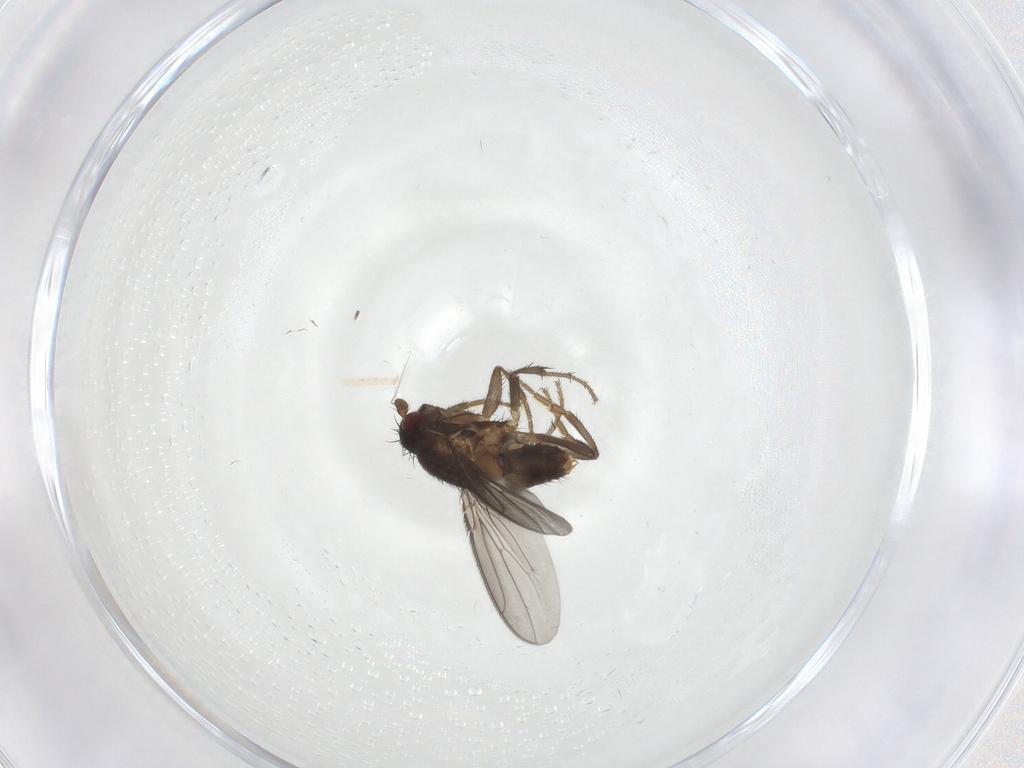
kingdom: Animalia
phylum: Arthropoda
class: Insecta
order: Diptera
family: Sphaeroceridae
